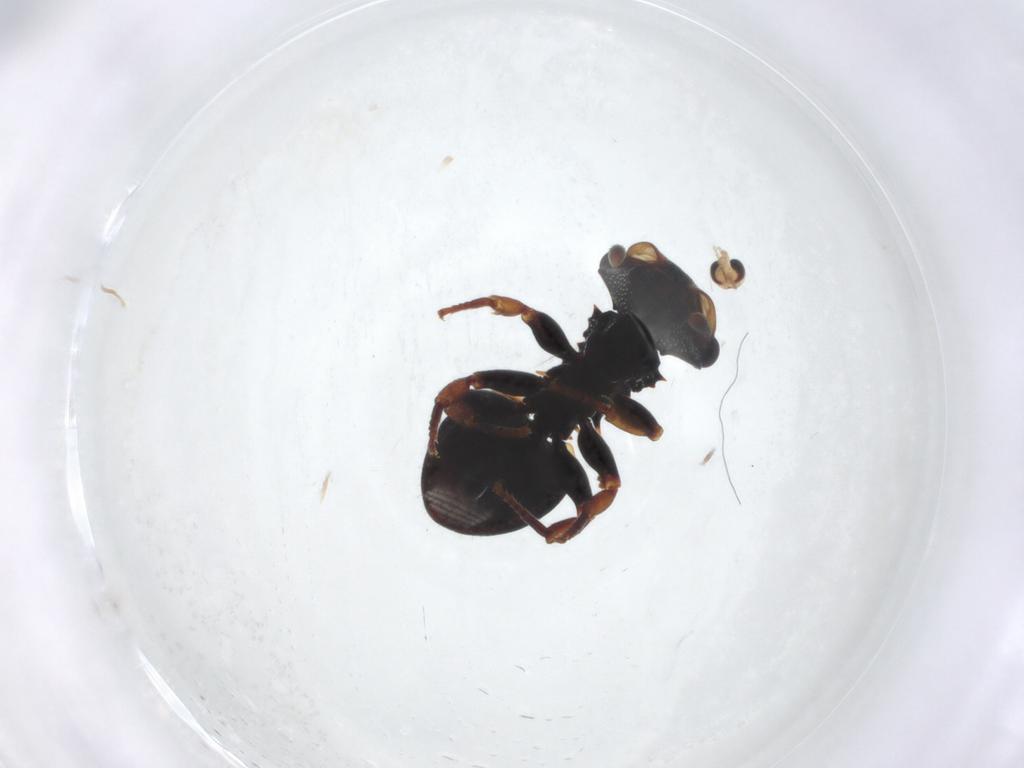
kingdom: Animalia
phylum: Arthropoda
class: Insecta
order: Hymenoptera
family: Formicidae
